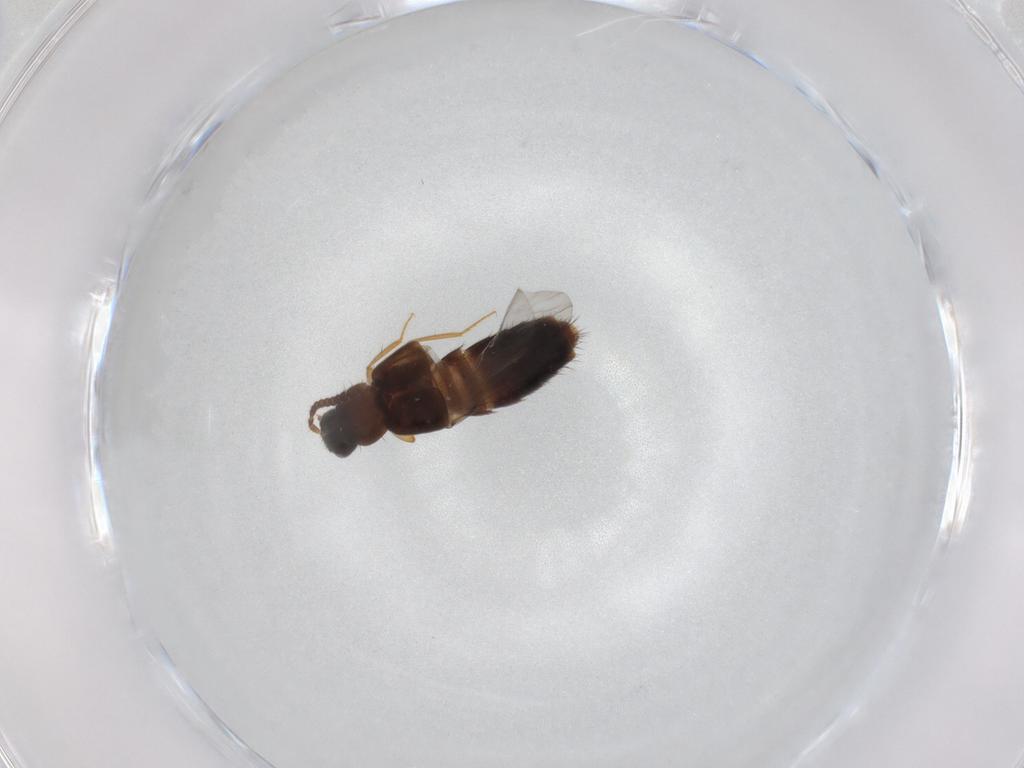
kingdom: Animalia
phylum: Arthropoda
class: Insecta
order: Coleoptera
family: Staphylinidae
